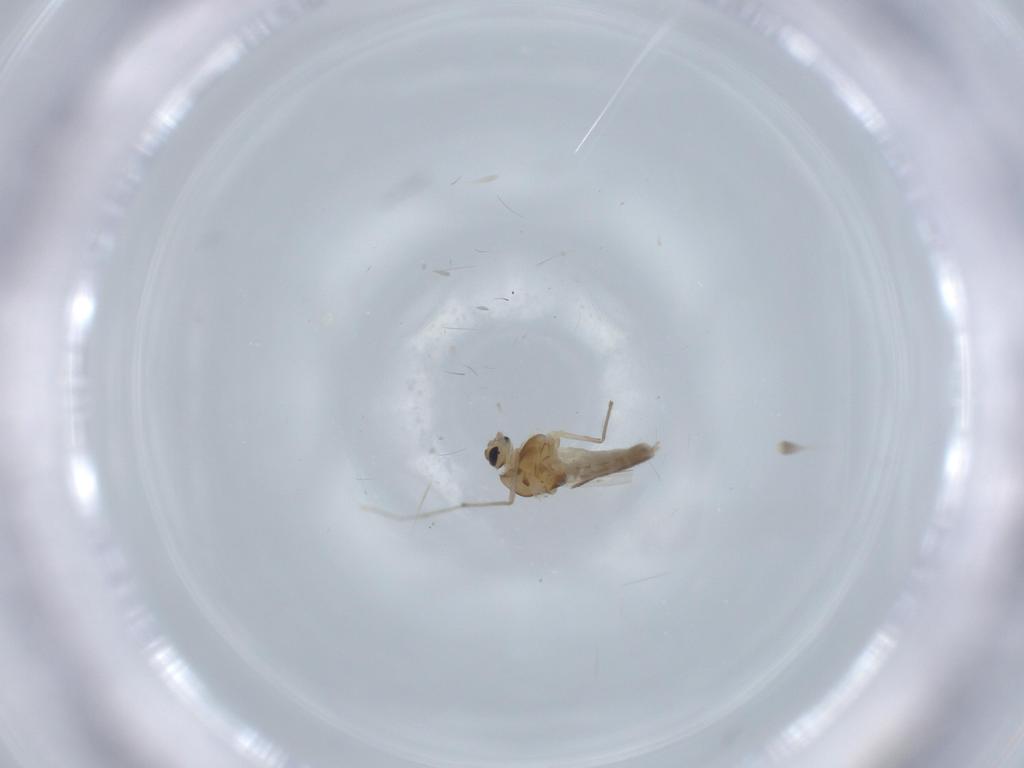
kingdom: Animalia
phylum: Arthropoda
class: Insecta
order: Diptera
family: Chironomidae
